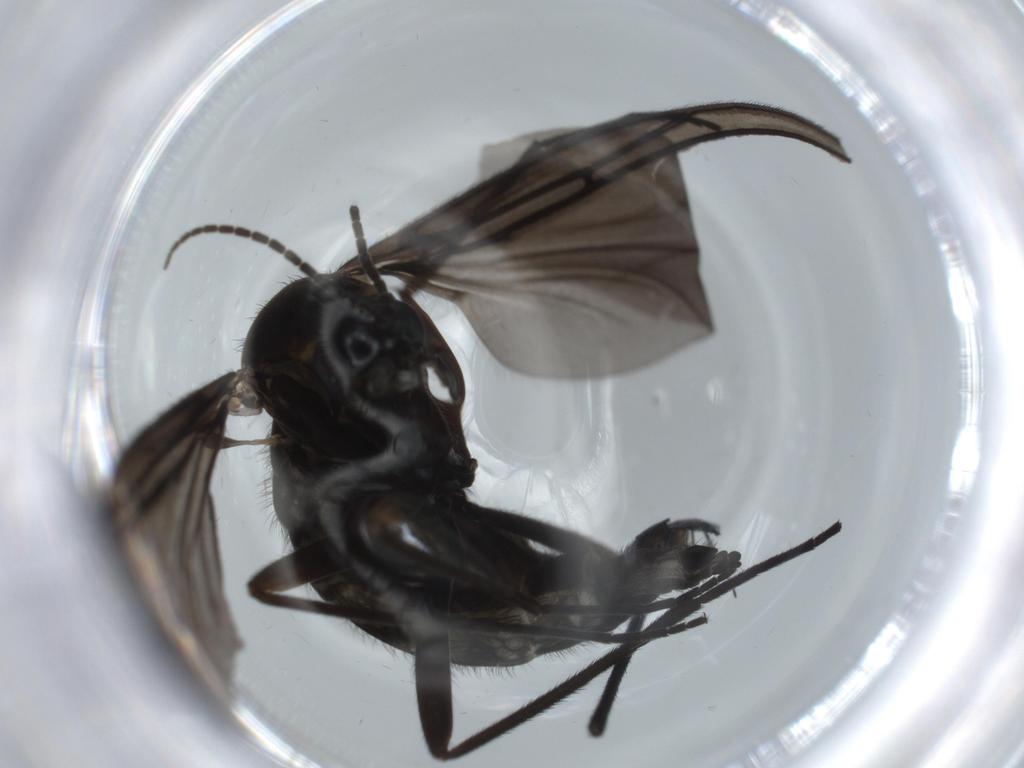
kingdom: Animalia
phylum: Arthropoda
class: Insecta
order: Diptera
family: Sciaridae
